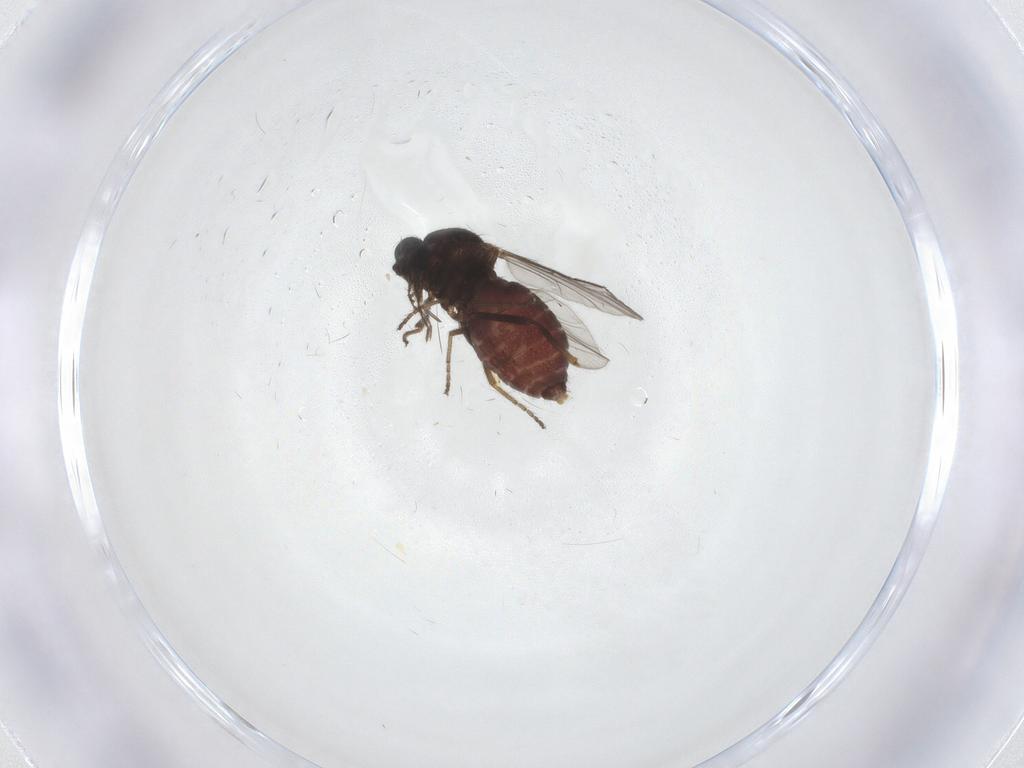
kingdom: Animalia
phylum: Arthropoda
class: Insecta
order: Diptera
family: Ceratopogonidae
